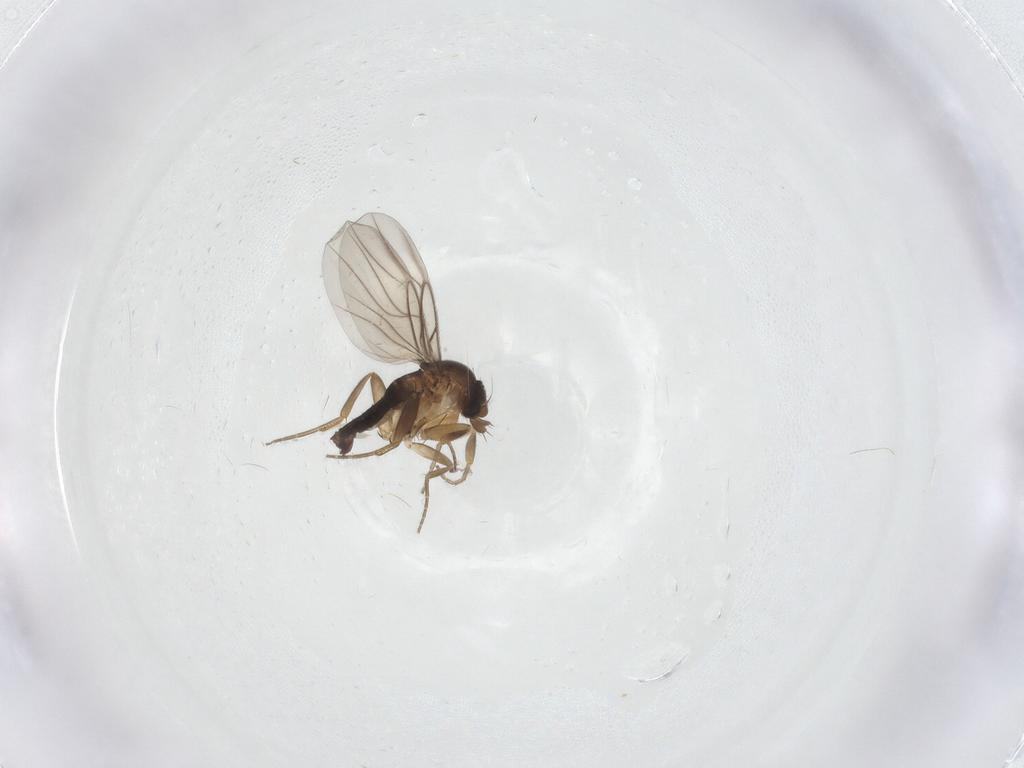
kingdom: Animalia
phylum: Arthropoda
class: Insecta
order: Diptera
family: Phoridae
